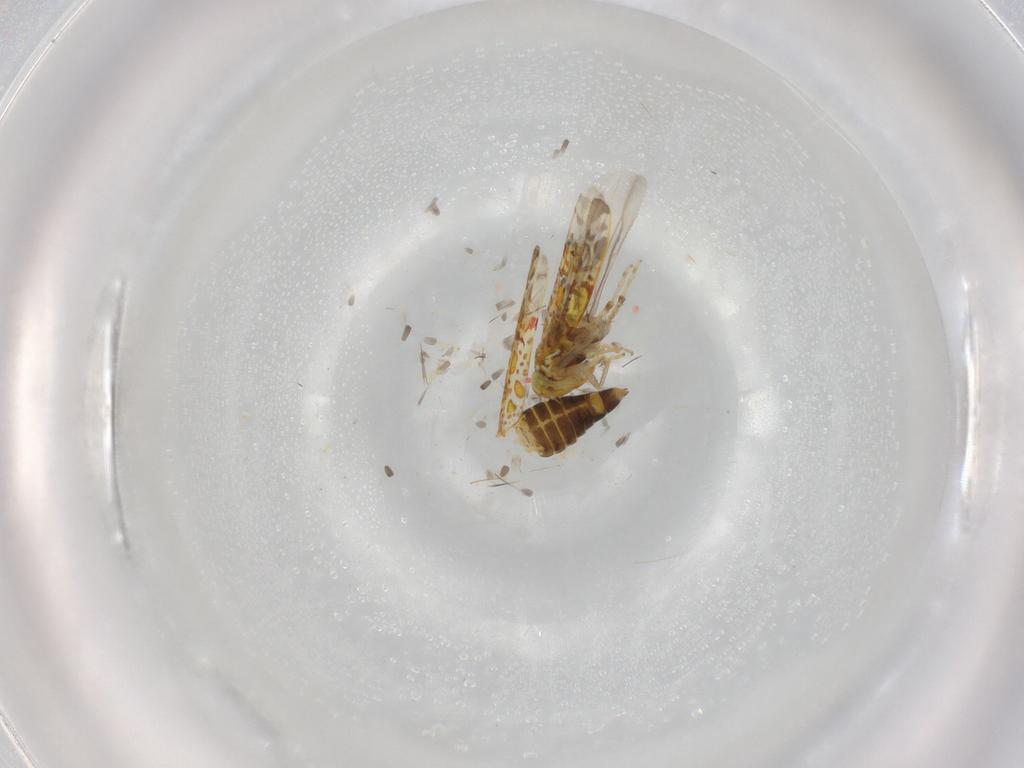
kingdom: Animalia
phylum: Arthropoda
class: Insecta
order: Hemiptera
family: Cicadellidae
